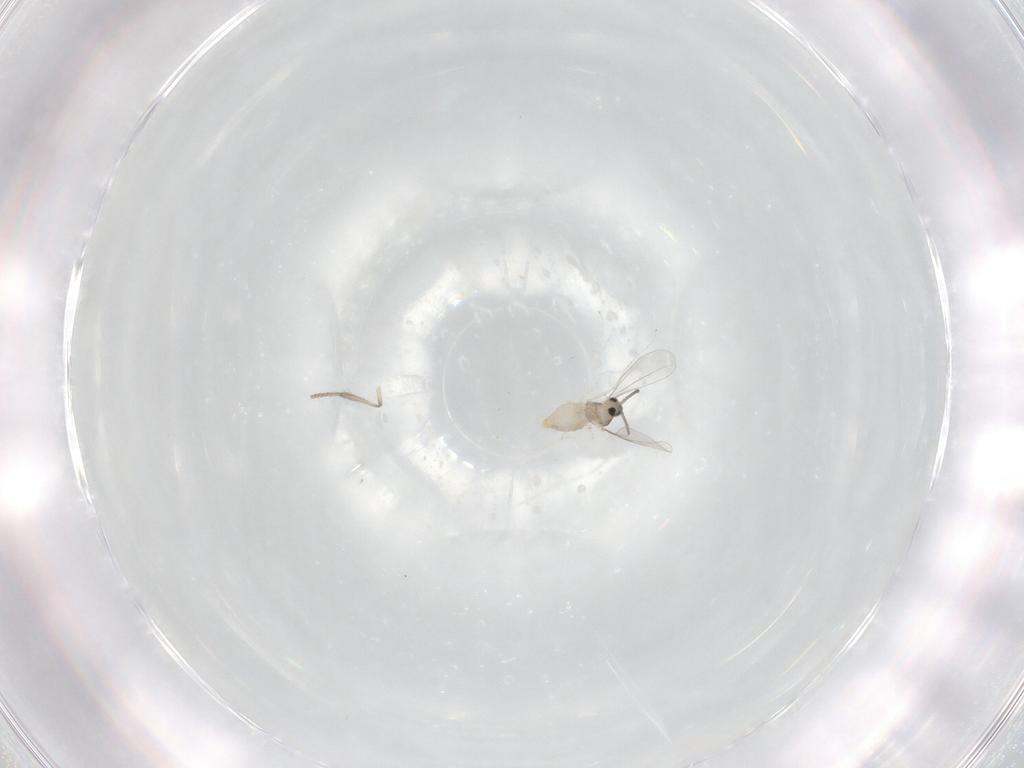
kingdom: Animalia
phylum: Arthropoda
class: Insecta
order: Diptera
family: Psychodidae
